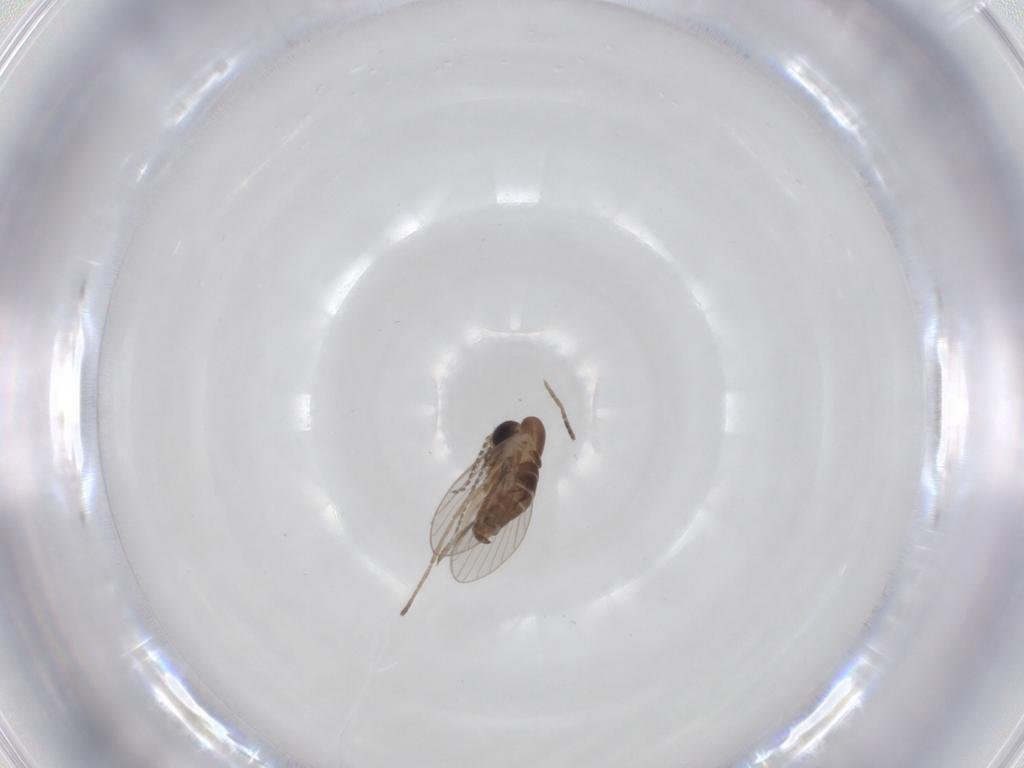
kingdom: Animalia
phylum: Arthropoda
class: Insecta
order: Diptera
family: Psychodidae
